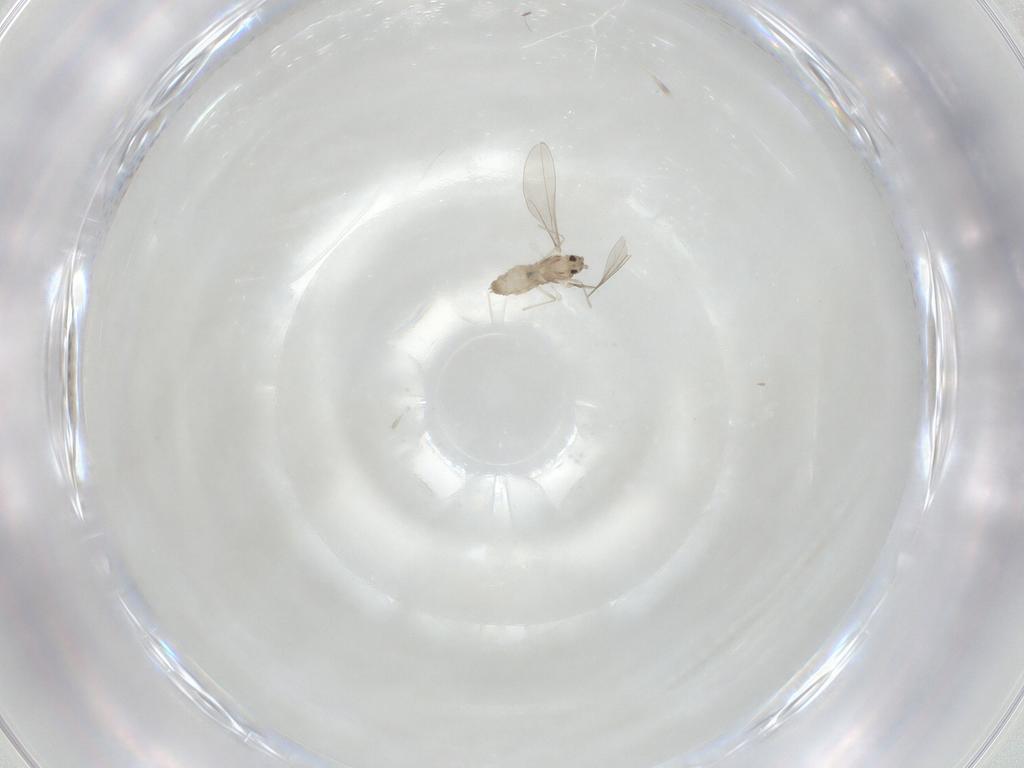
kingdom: Animalia
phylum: Arthropoda
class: Insecta
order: Diptera
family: Cecidomyiidae
